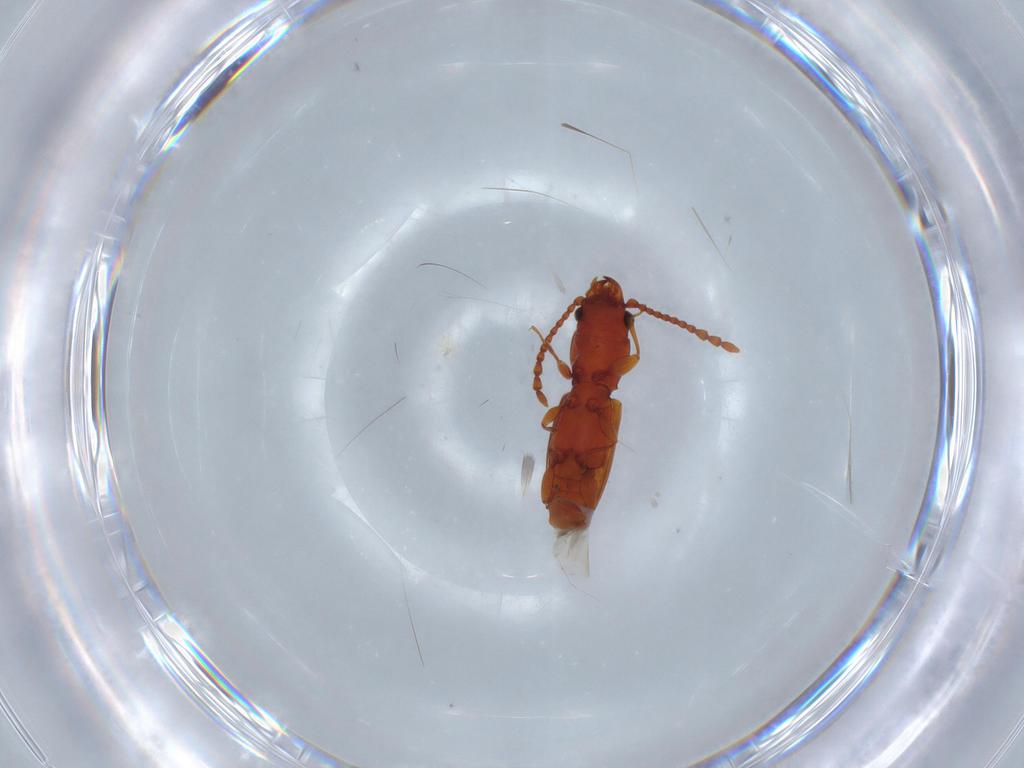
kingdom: Animalia
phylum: Arthropoda
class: Insecta
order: Coleoptera
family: Laemophloeidae
